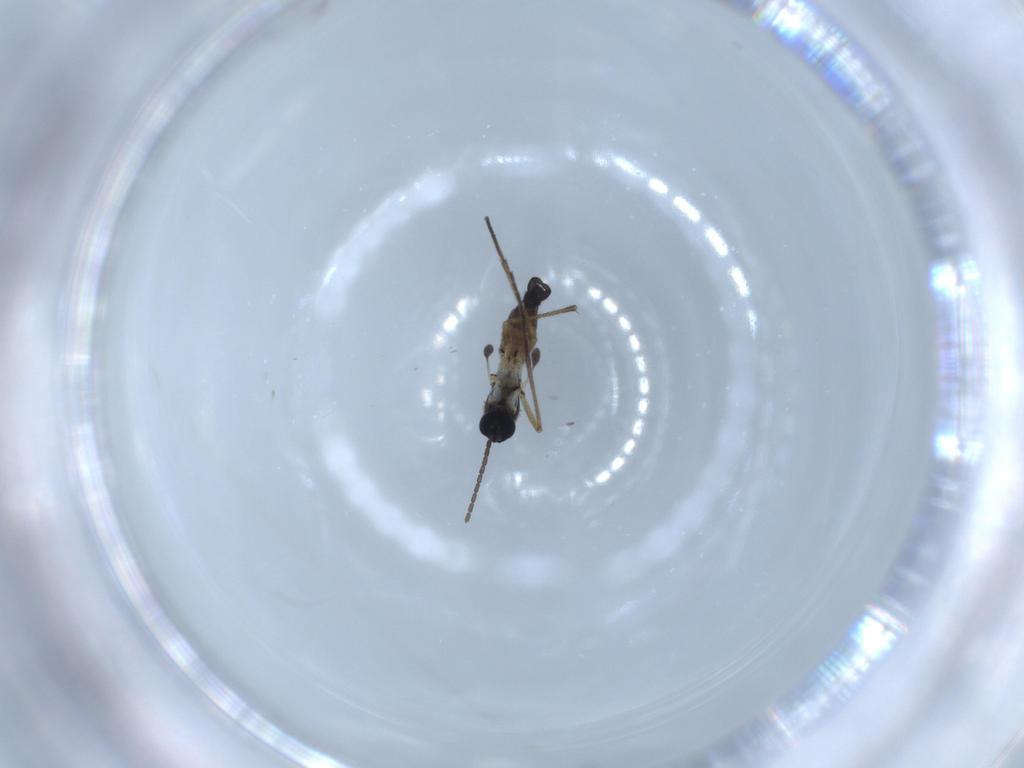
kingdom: Animalia
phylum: Arthropoda
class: Insecta
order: Diptera
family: Sciaridae
